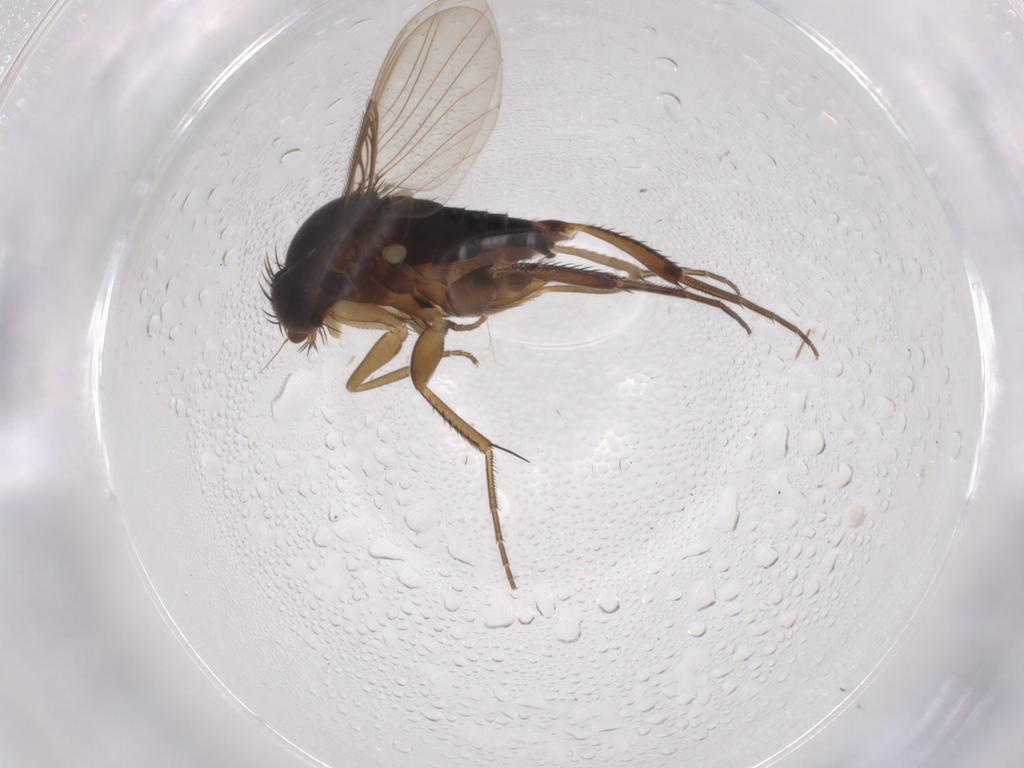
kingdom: Animalia
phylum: Arthropoda
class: Insecta
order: Diptera
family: Phoridae
